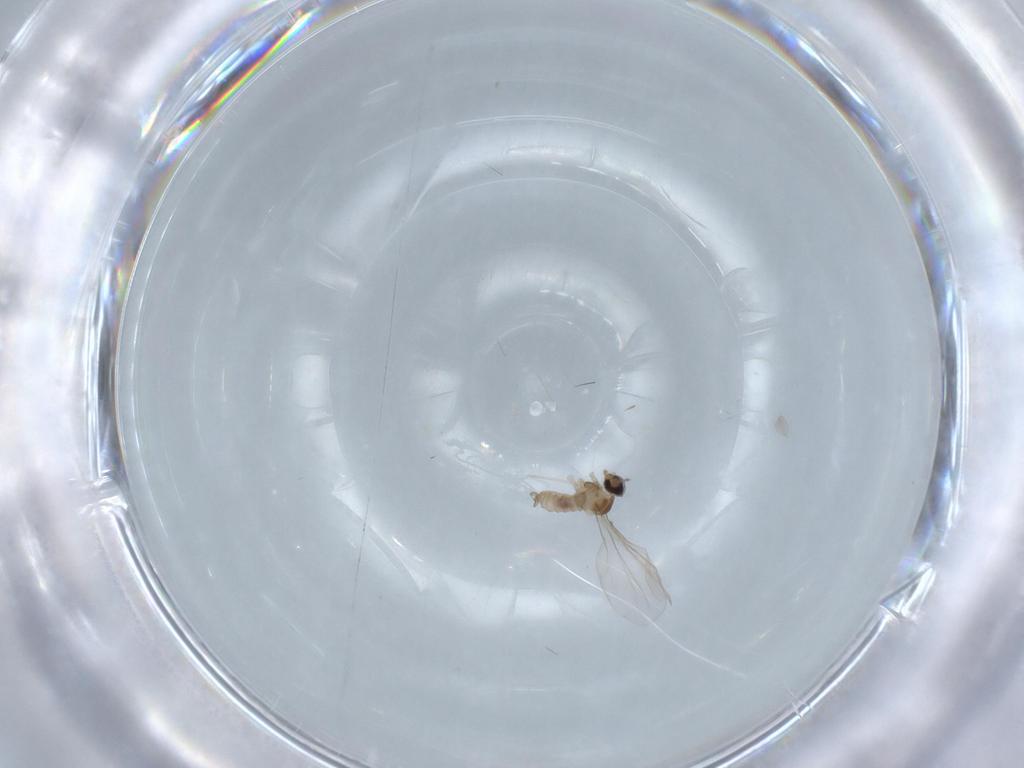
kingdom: Animalia
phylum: Arthropoda
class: Insecta
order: Diptera
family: Cecidomyiidae
